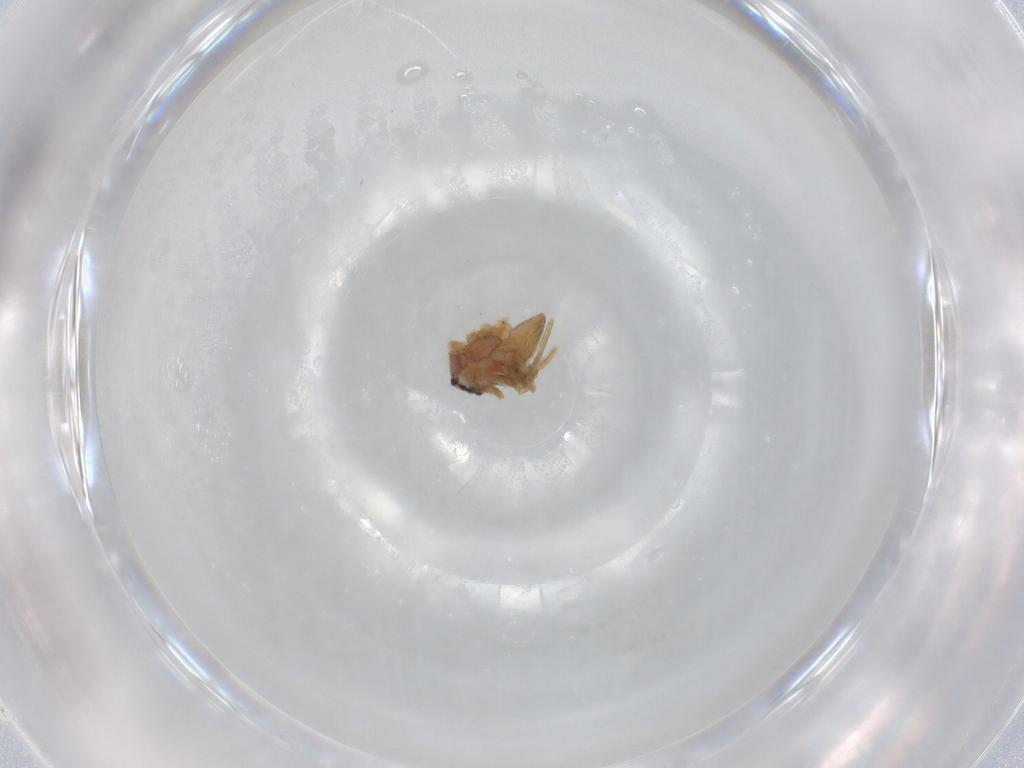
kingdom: Animalia
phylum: Arthropoda
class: Arachnida
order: Araneae
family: Lycosidae
